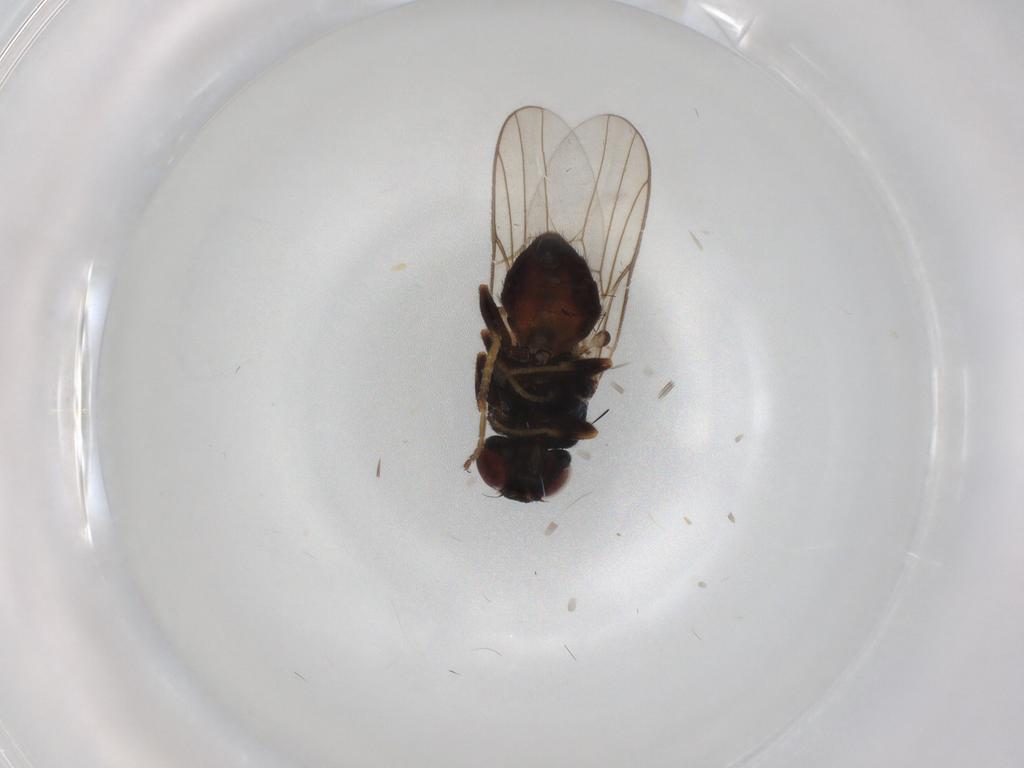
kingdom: Animalia
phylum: Arthropoda
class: Insecta
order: Diptera
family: Chloropidae
